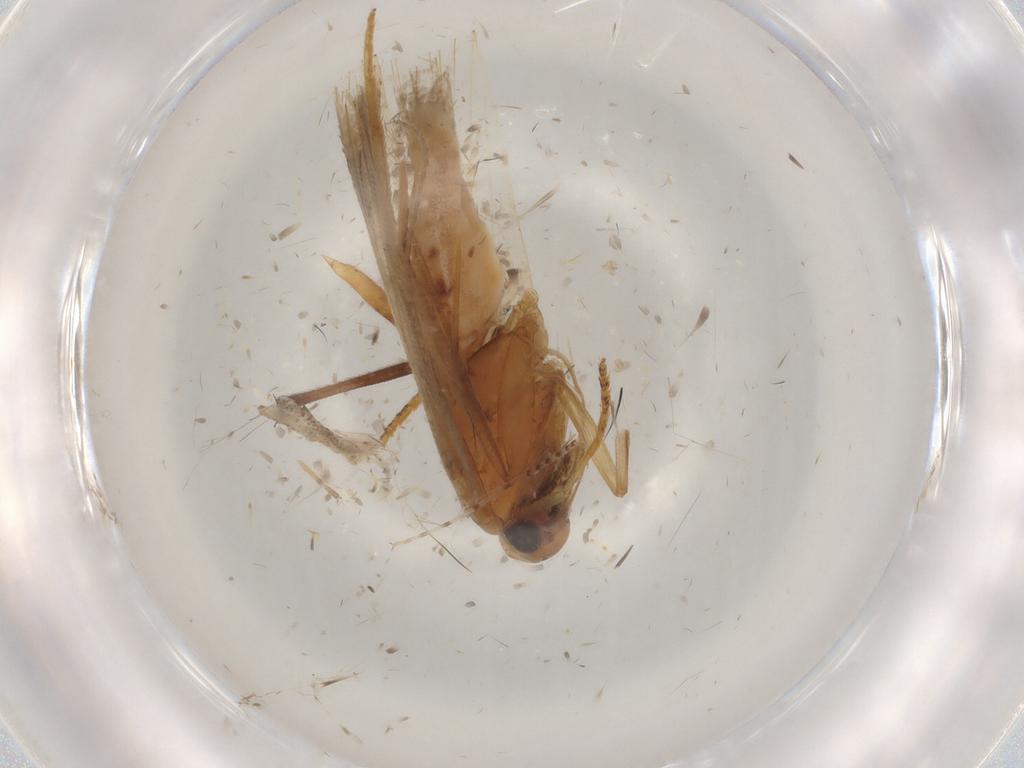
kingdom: Animalia
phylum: Arthropoda
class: Insecta
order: Lepidoptera
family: Gelechiidae
